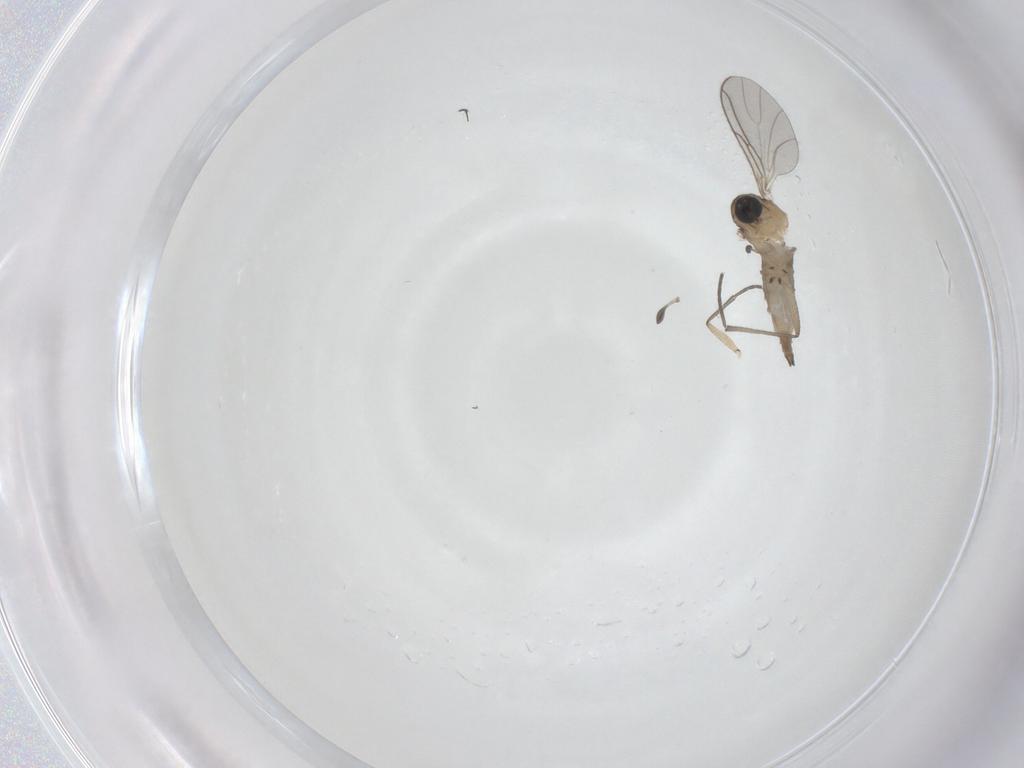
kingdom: Animalia
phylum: Arthropoda
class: Insecta
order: Diptera
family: Sciaridae
